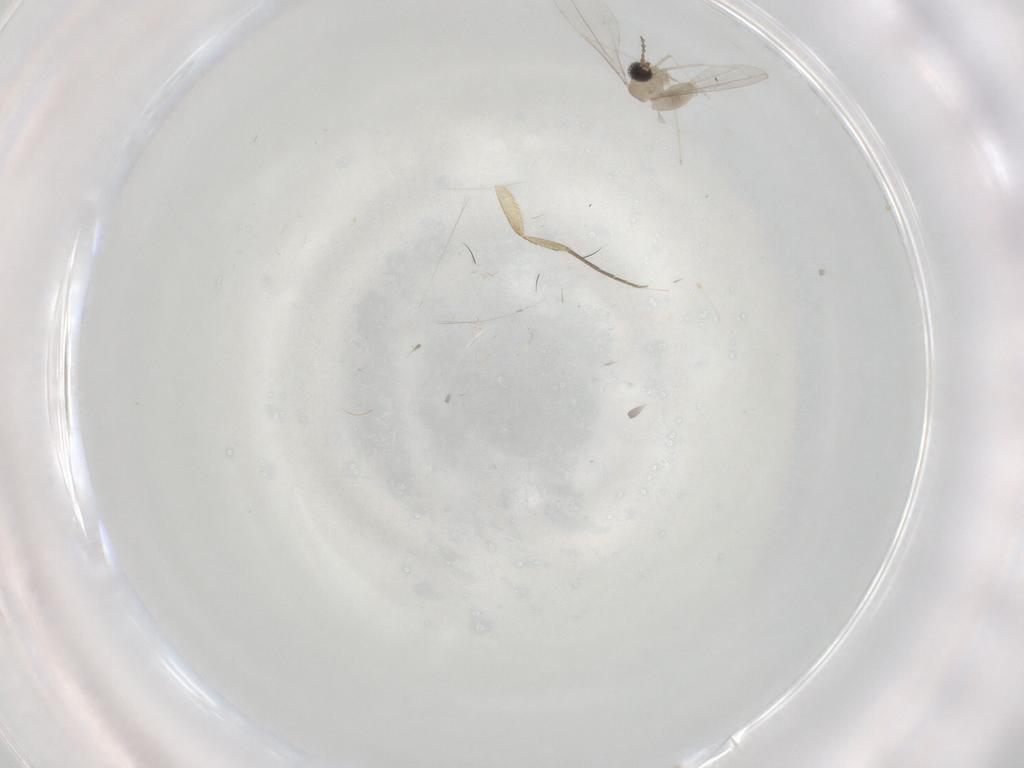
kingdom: Animalia
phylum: Arthropoda
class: Insecta
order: Diptera
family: Cecidomyiidae
